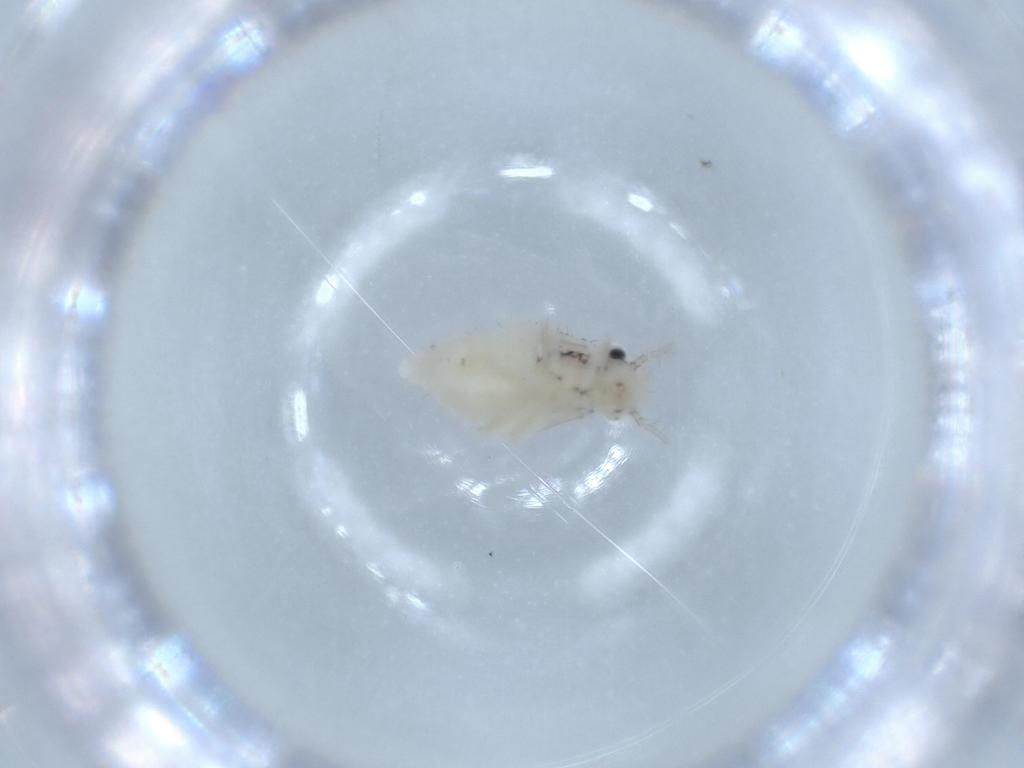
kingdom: Animalia
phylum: Arthropoda
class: Insecta
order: Psocodea
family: Pseudocaeciliidae
